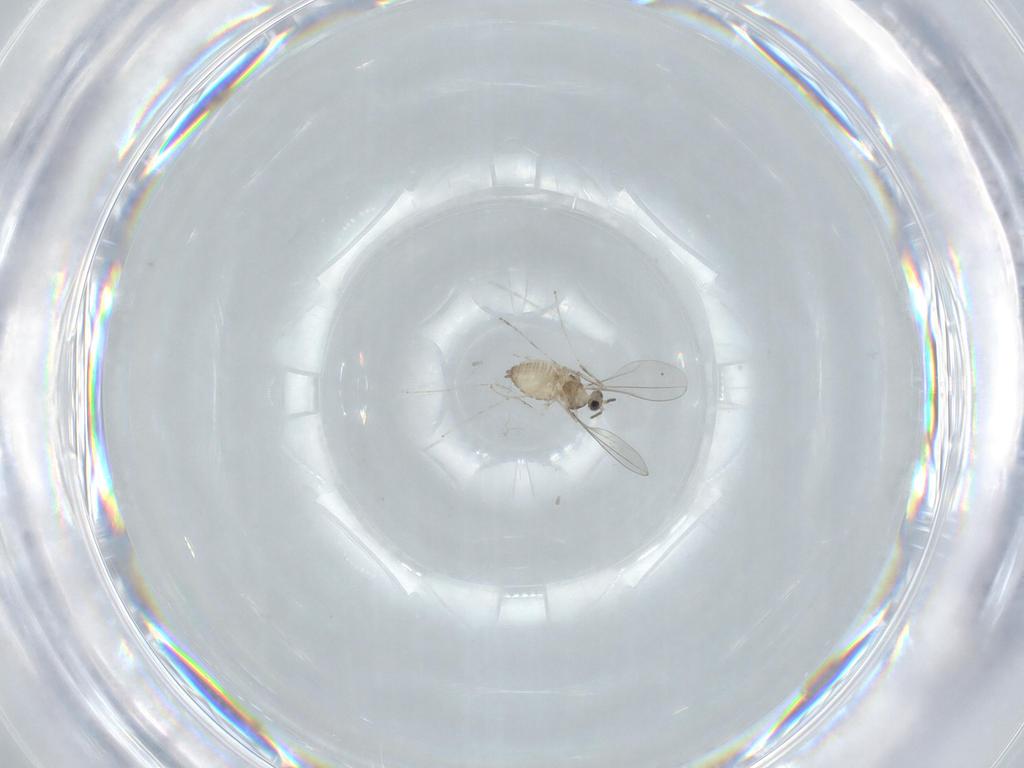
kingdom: Animalia
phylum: Arthropoda
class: Insecta
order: Diptera
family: Cecidomyiidae
